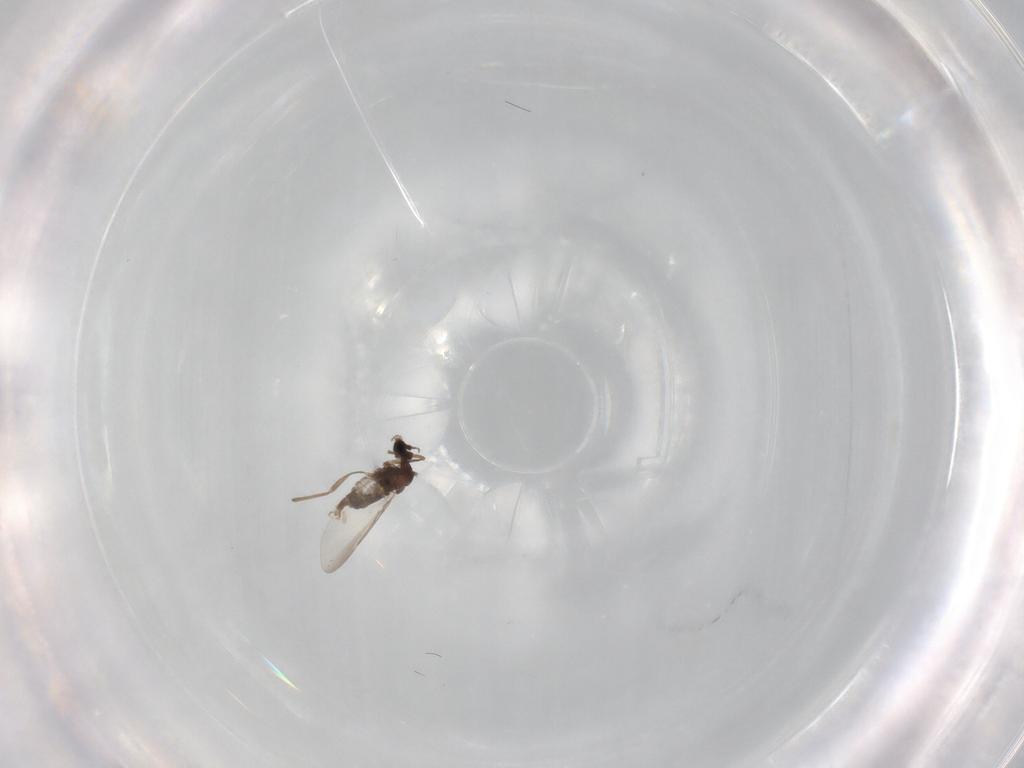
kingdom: Animalia
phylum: Arthropoda
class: Insecta
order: Diptera
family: Cecidomyiidae
